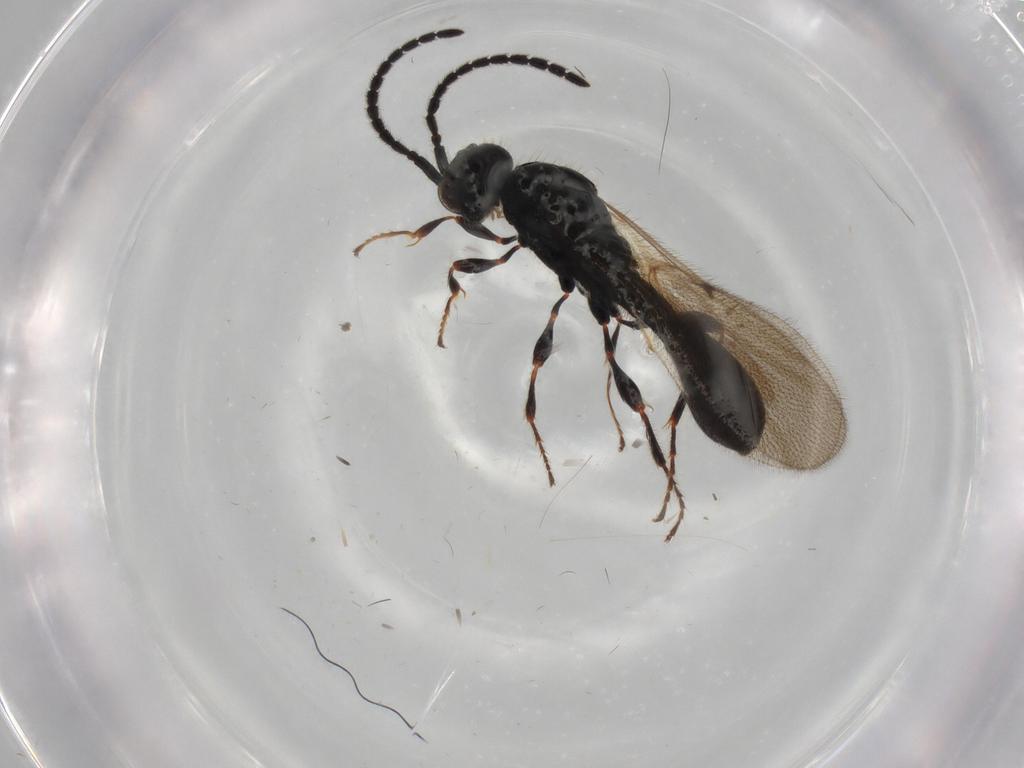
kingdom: Animalia
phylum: Arthropoda
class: Insecta
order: Hymenoptera
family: Diapriidae
